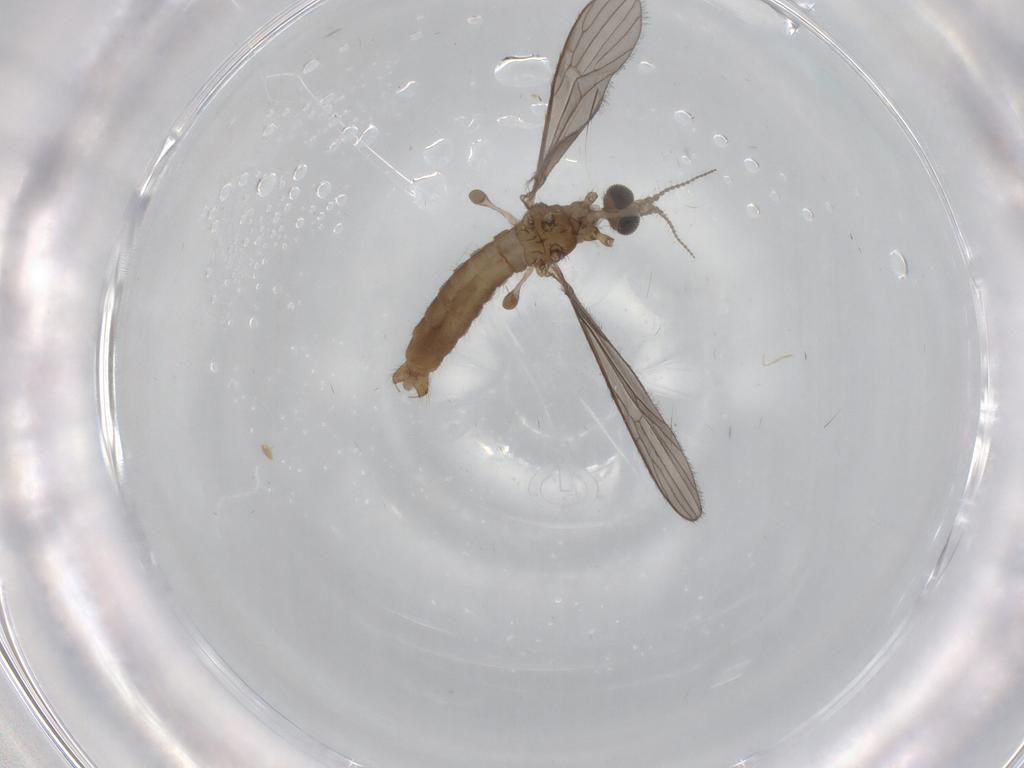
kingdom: Animalia
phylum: Arthropoda
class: Insecta
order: Diptera
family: Phoridae
